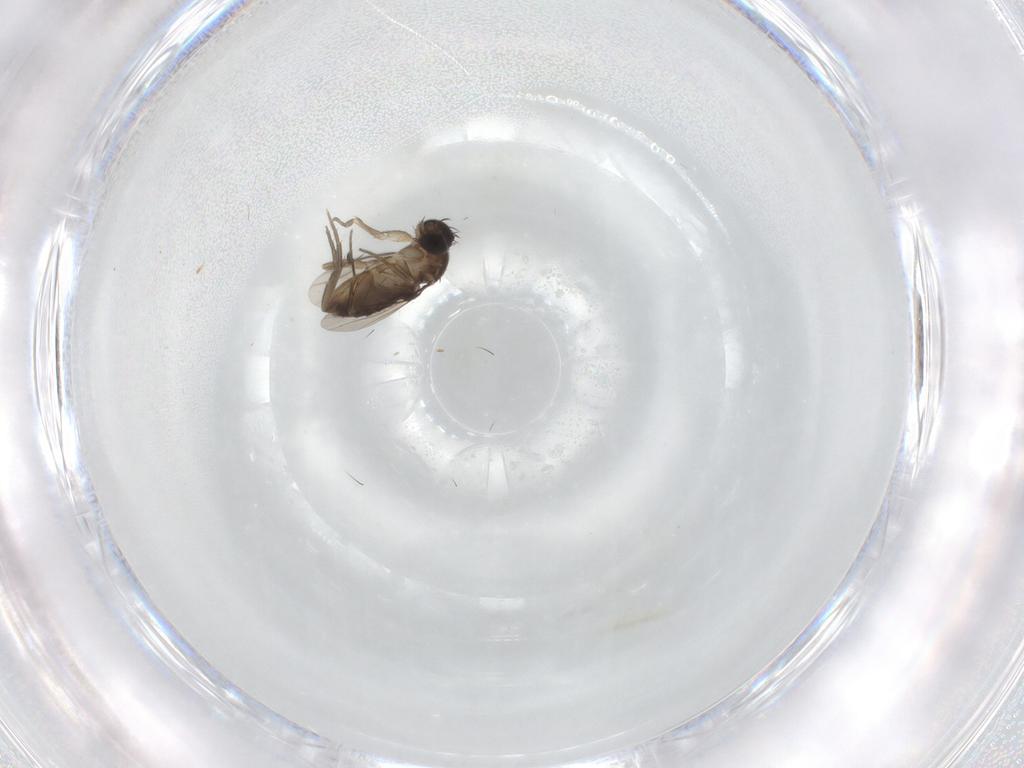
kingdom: Animalia
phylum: Arthropoda
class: Insecta
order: Diptera
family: Phoridae
